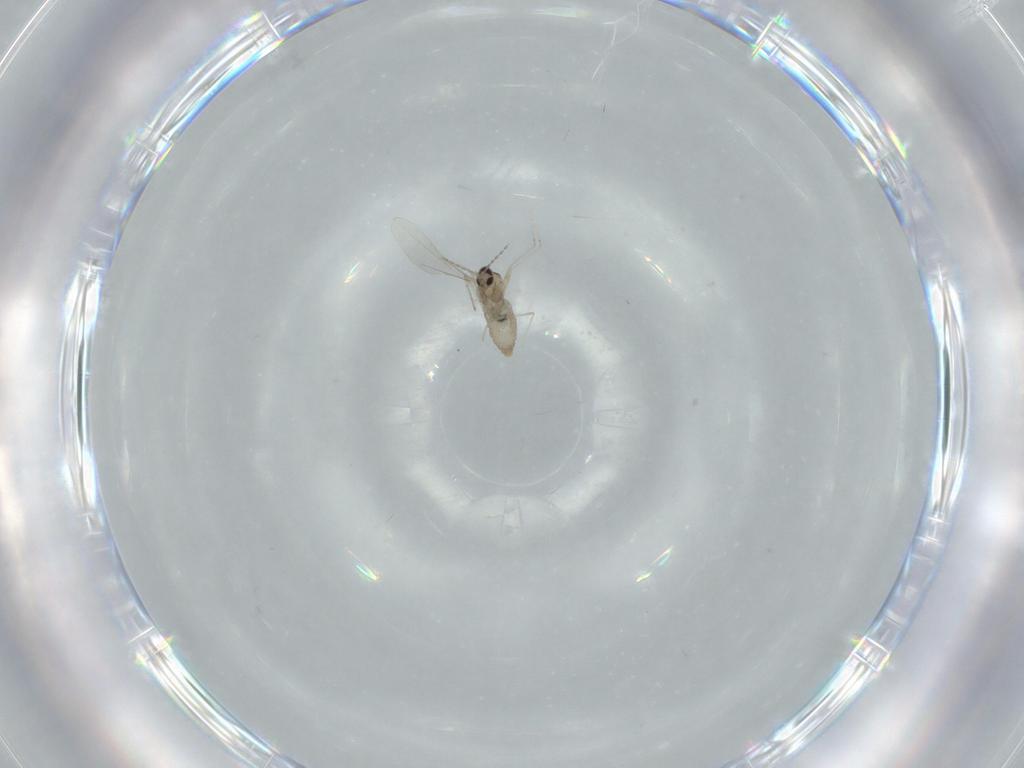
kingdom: Animalia
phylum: Arthropoda
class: Insecta
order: Diptera
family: Cecidomyiidae
